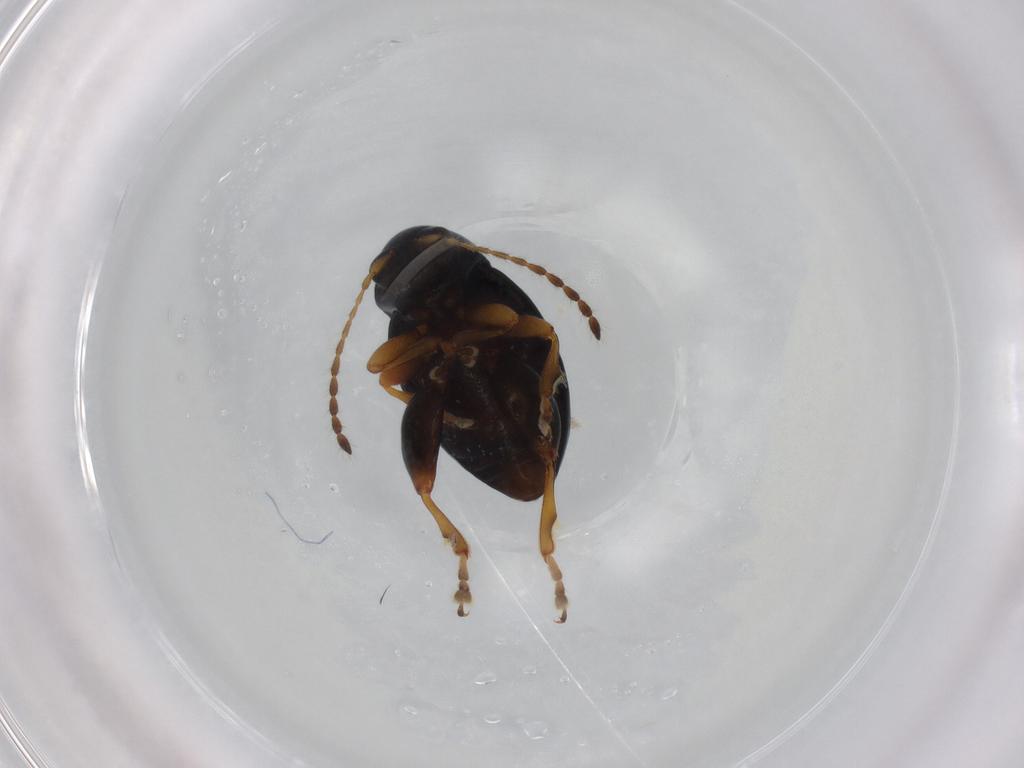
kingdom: Animalia
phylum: Arthropoda
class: Insecta
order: Coleoptera
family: Chrysomelidae
